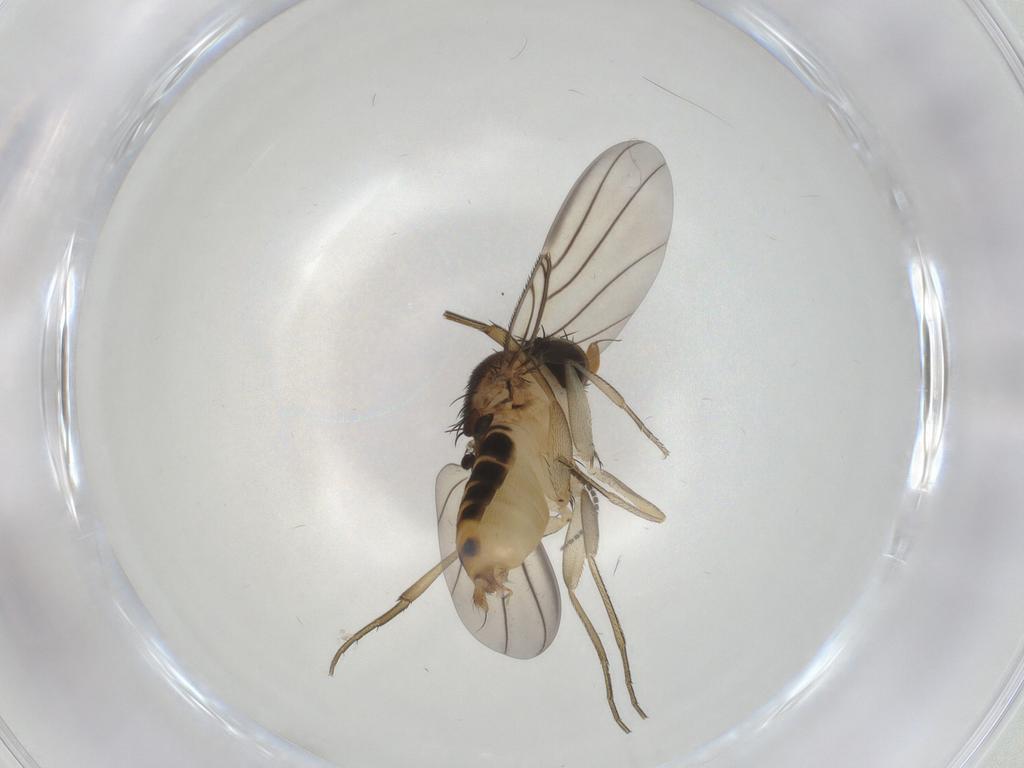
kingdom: Animalia
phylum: Arthropoda
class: Insecta
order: Diptera
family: Phoridae
